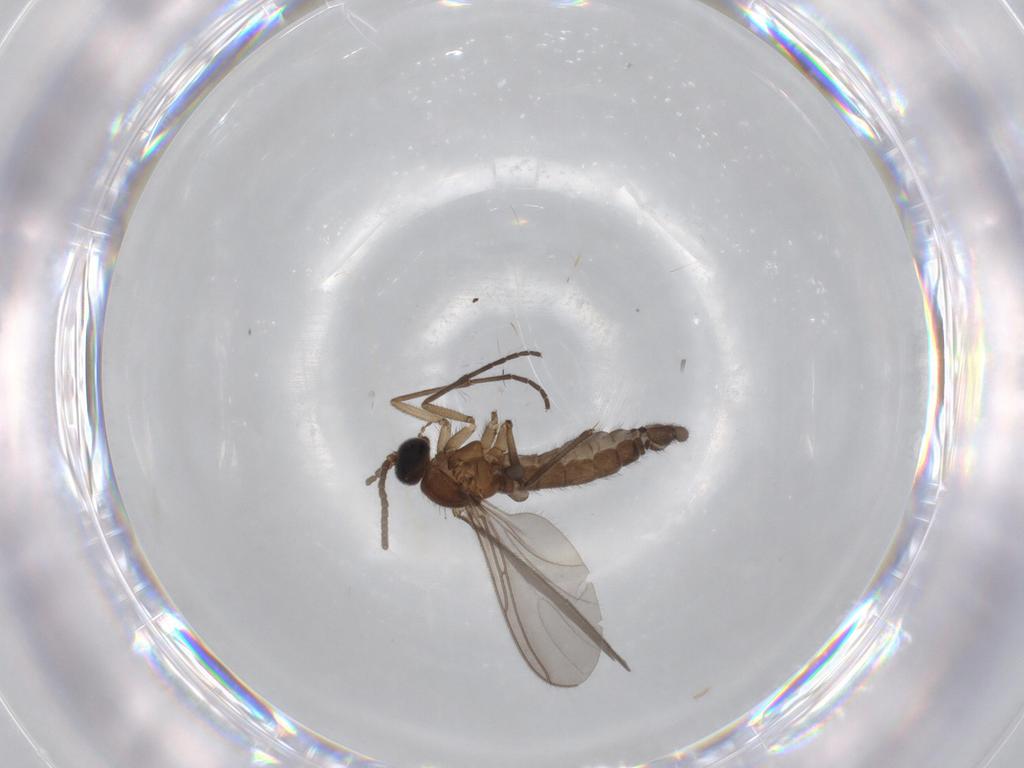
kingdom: Animalia
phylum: Arthropoda
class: Insecta
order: Diptera
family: Sciaridae
